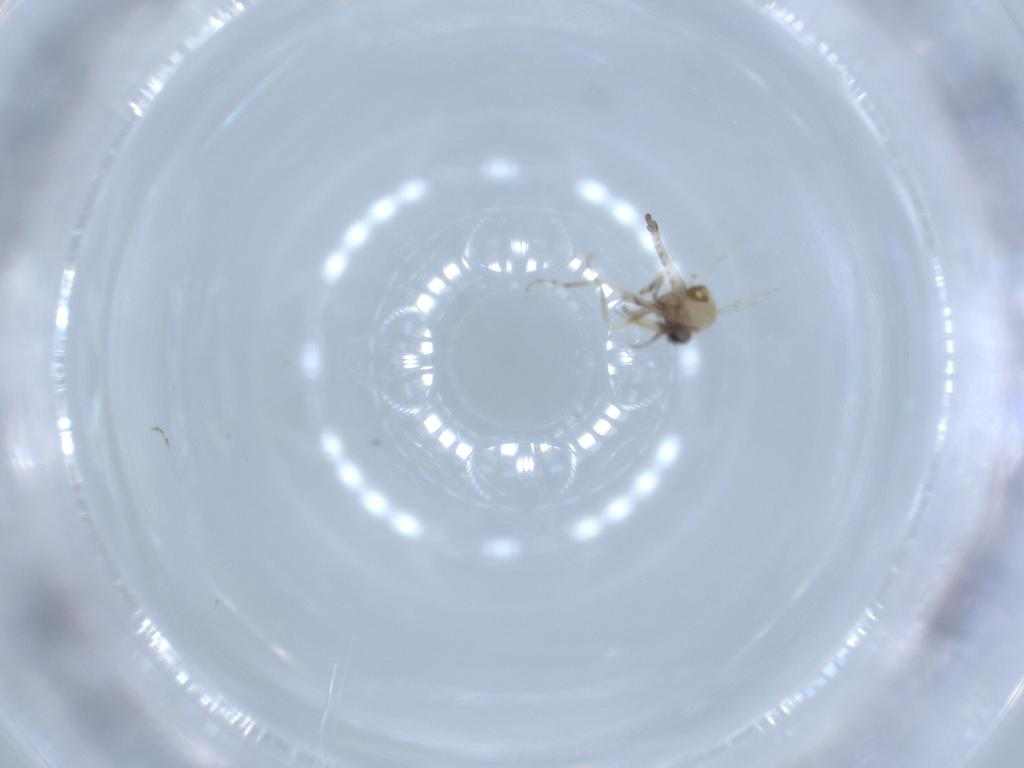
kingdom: Animalia
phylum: Arthropoda
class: Insecta
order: Diptera
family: Ceratopogonidae
